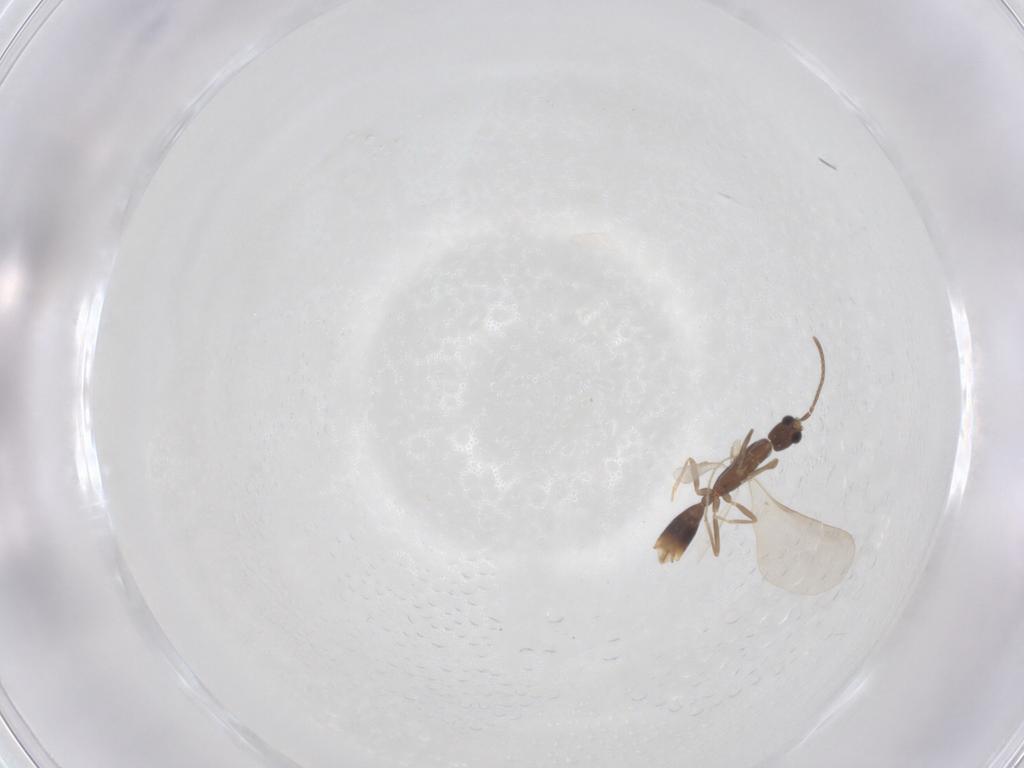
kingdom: Animalia
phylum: Arthropoda
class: Insecta
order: Hymenoptera
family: Formicidae
